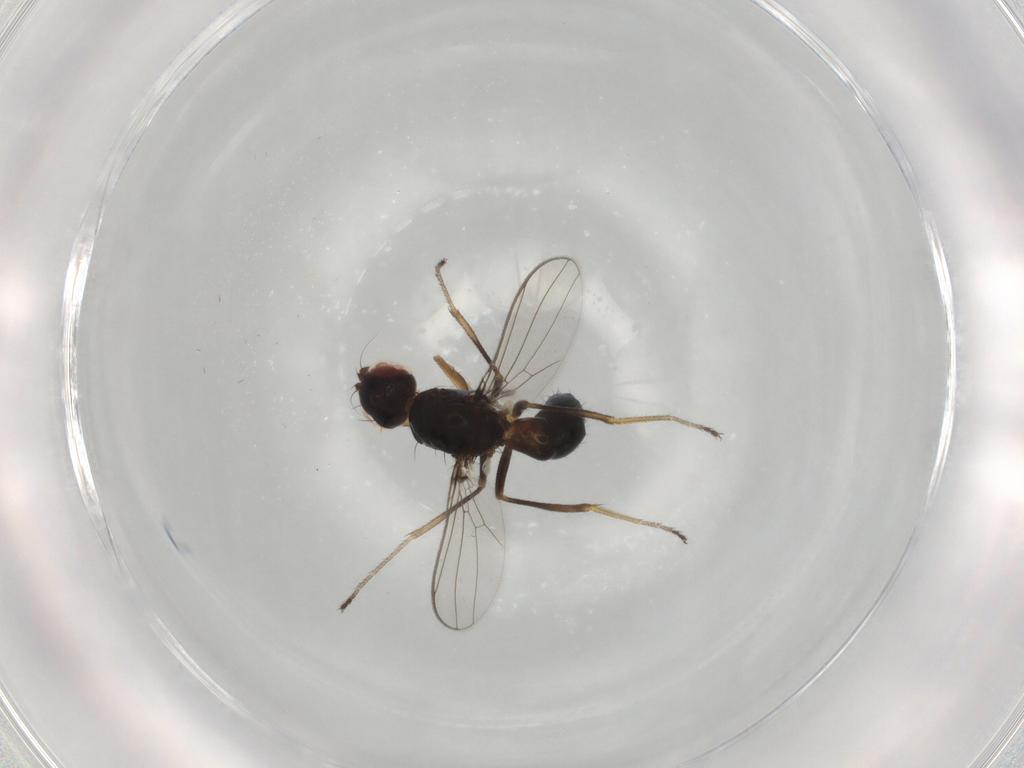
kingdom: Animalia
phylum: Arthropoda
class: Insecta
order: Diptera
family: Sepsidae
